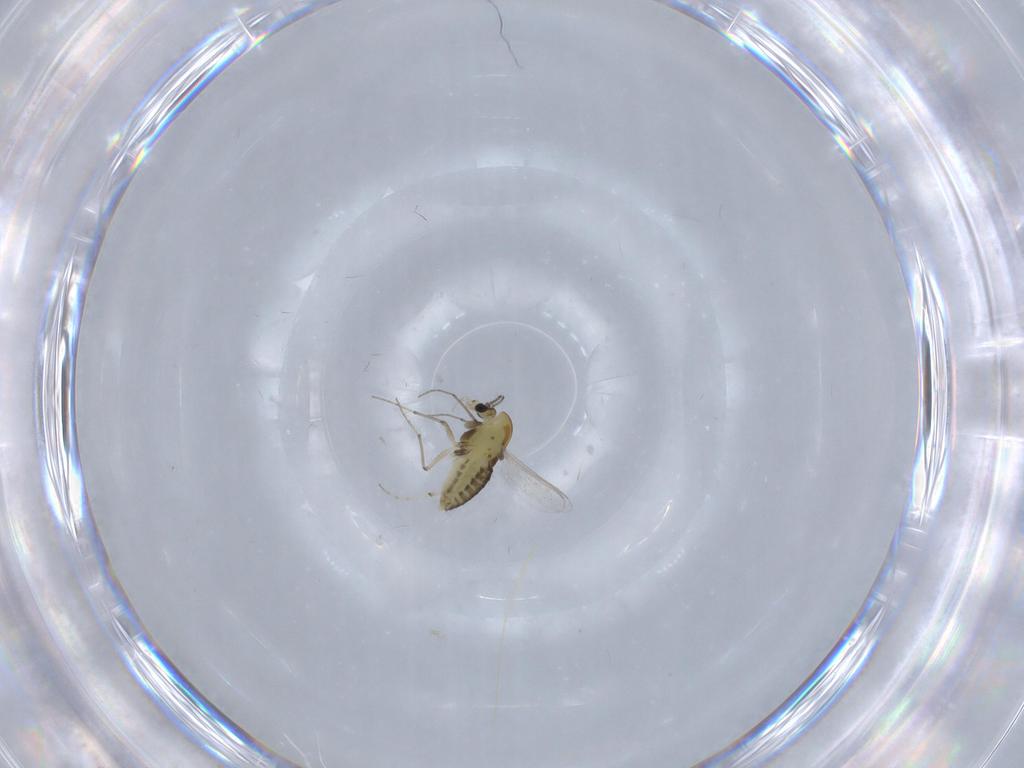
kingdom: Animalia
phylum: Arthropoda
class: Insecta
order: Diptera
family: Chironomidae
